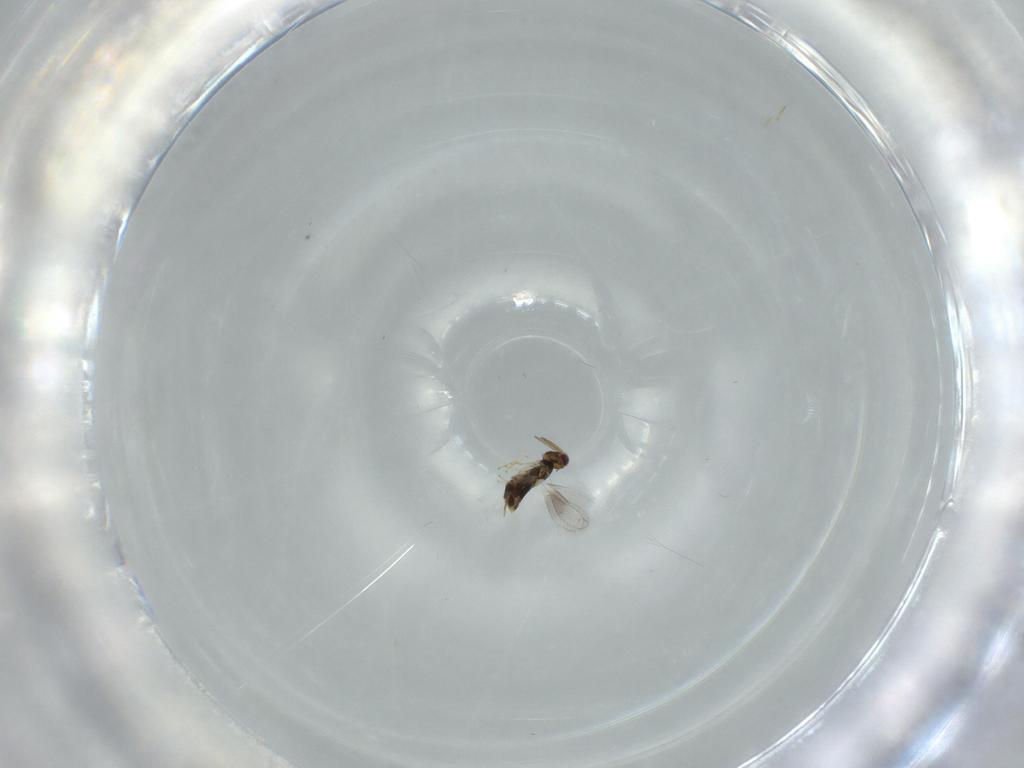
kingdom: Animalia
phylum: Arthropoda
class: Insecta
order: Hymenoptera
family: Aphelinidae
